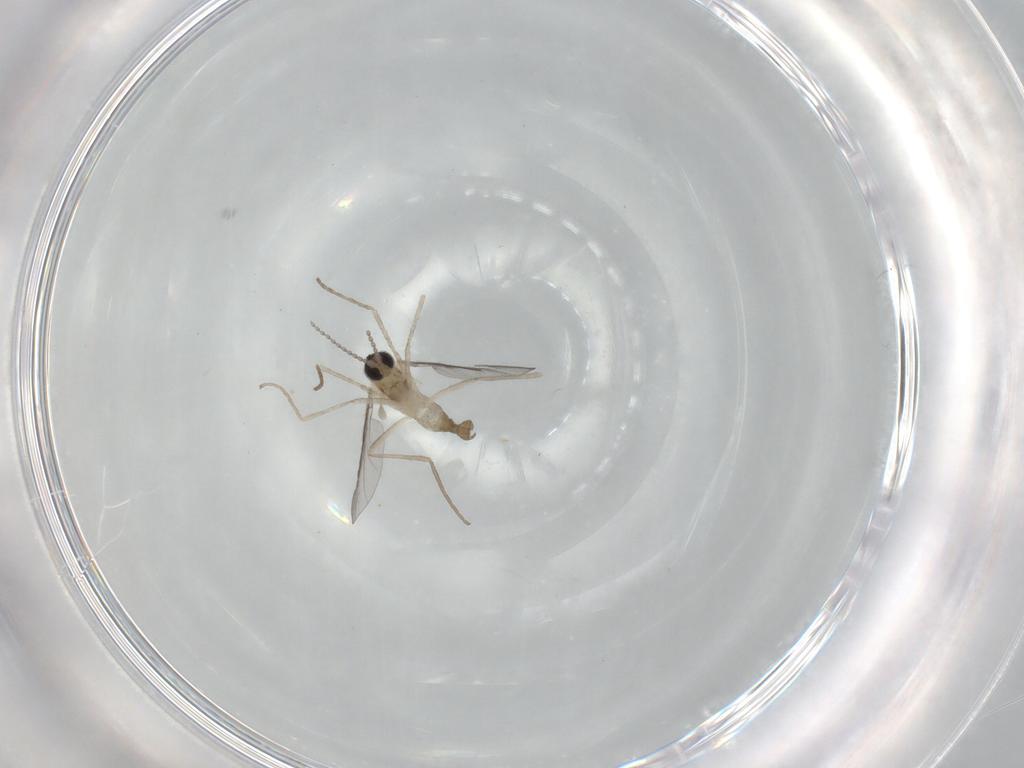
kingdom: Animalia
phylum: Arthropoda
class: Insecta
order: Diptera
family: Cecidomyiidae
